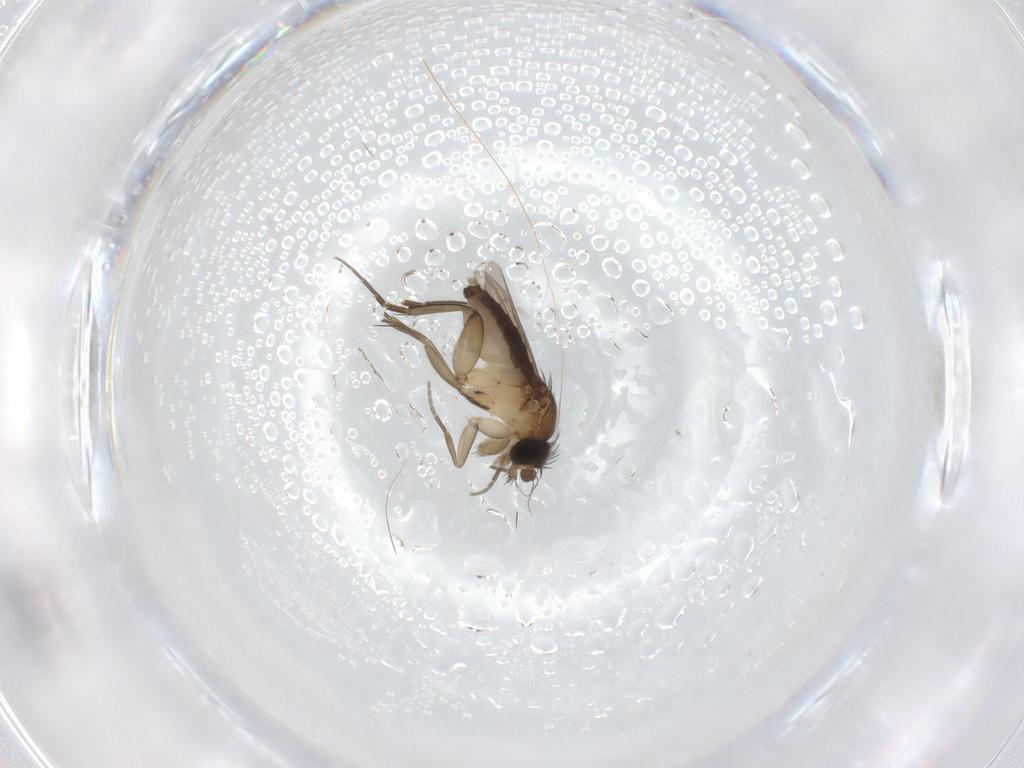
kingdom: Animalia
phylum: Arthropoda
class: Insecta
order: Diptera
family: Phoridae
